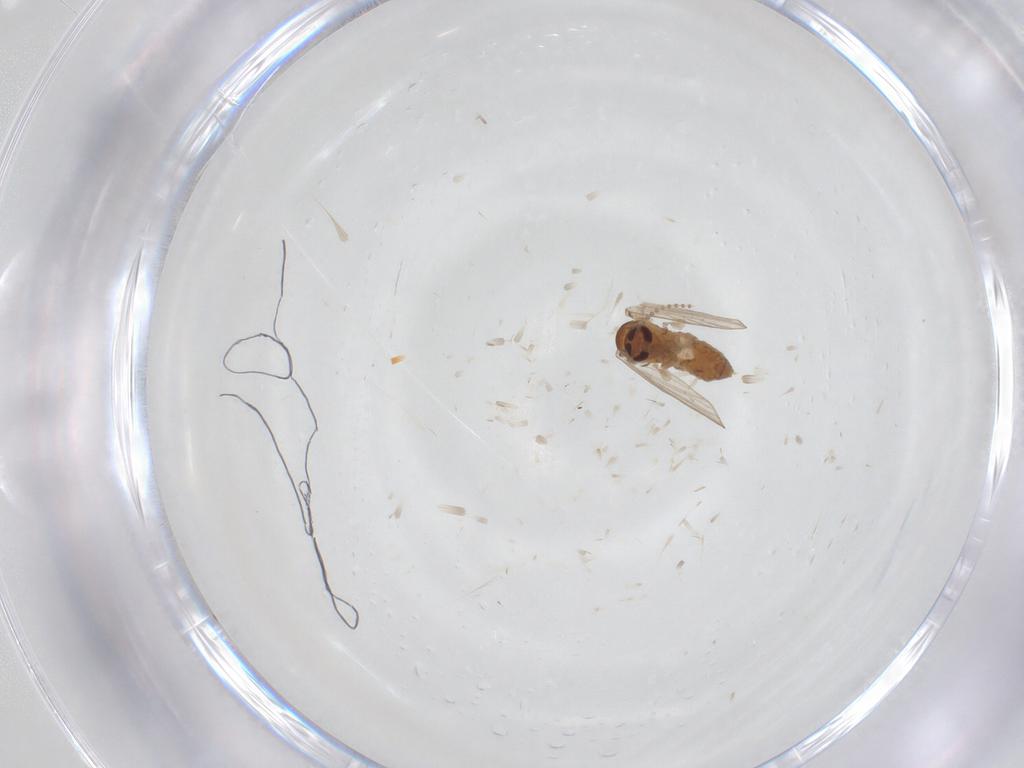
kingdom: Animalia
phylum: Arthropoda
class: Insecta
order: Diptera
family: Psychodidae
